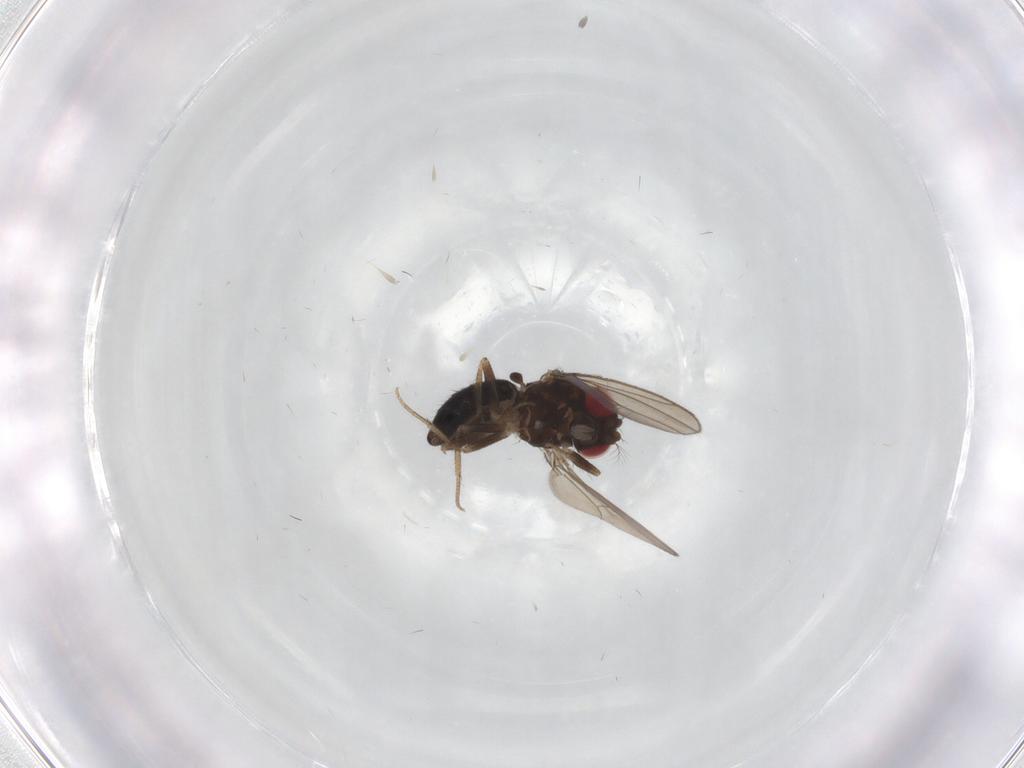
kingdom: Animalia
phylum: Arthropoda
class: Insecta
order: Diptera
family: Sciaridae
